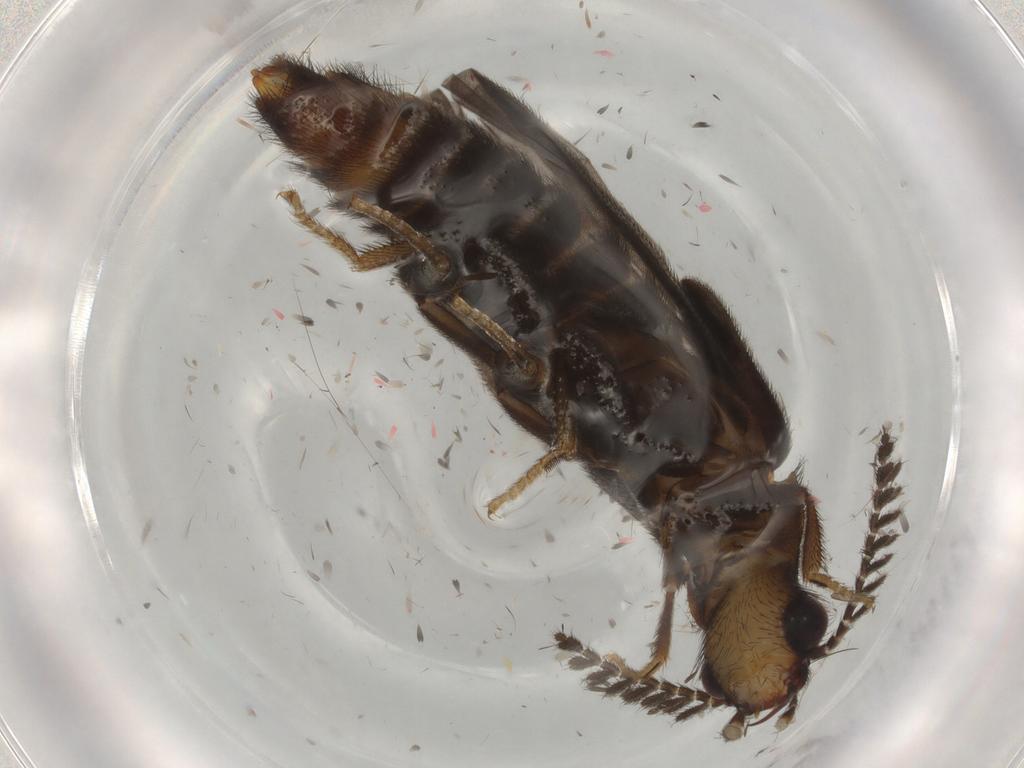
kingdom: Animalia
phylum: Arthropoda
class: Insecta
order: Coleoptera
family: Phengodidae
